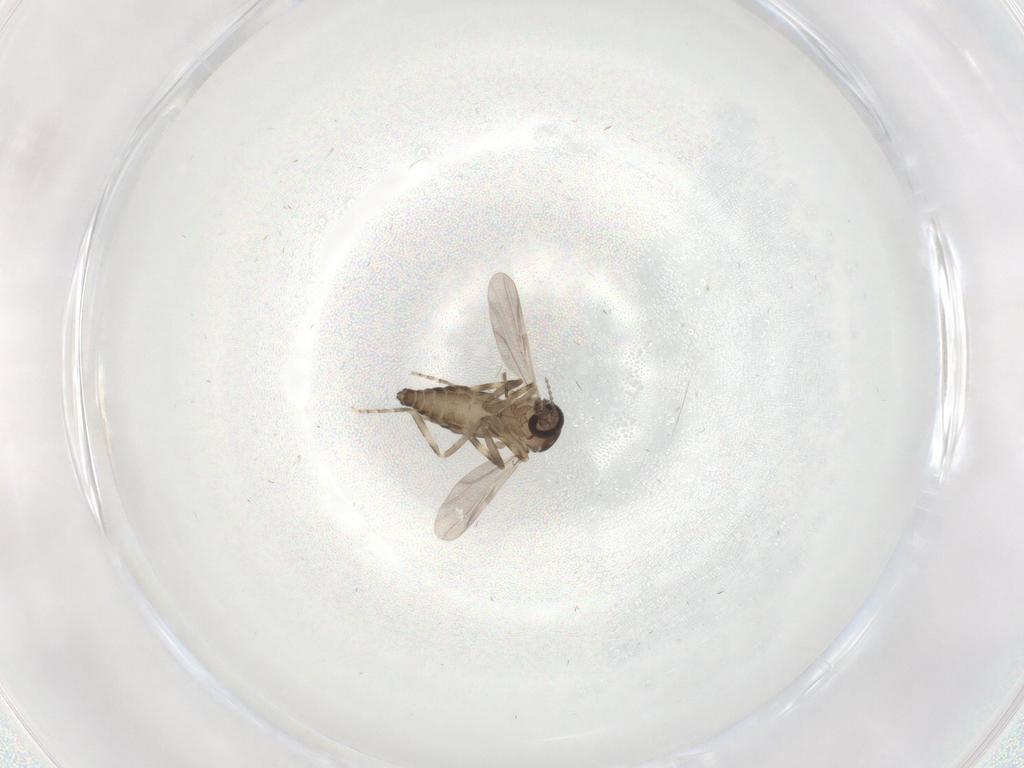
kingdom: Animalia
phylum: Arthropoda
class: Insecta
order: Diptera
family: Ceratopogonidae
